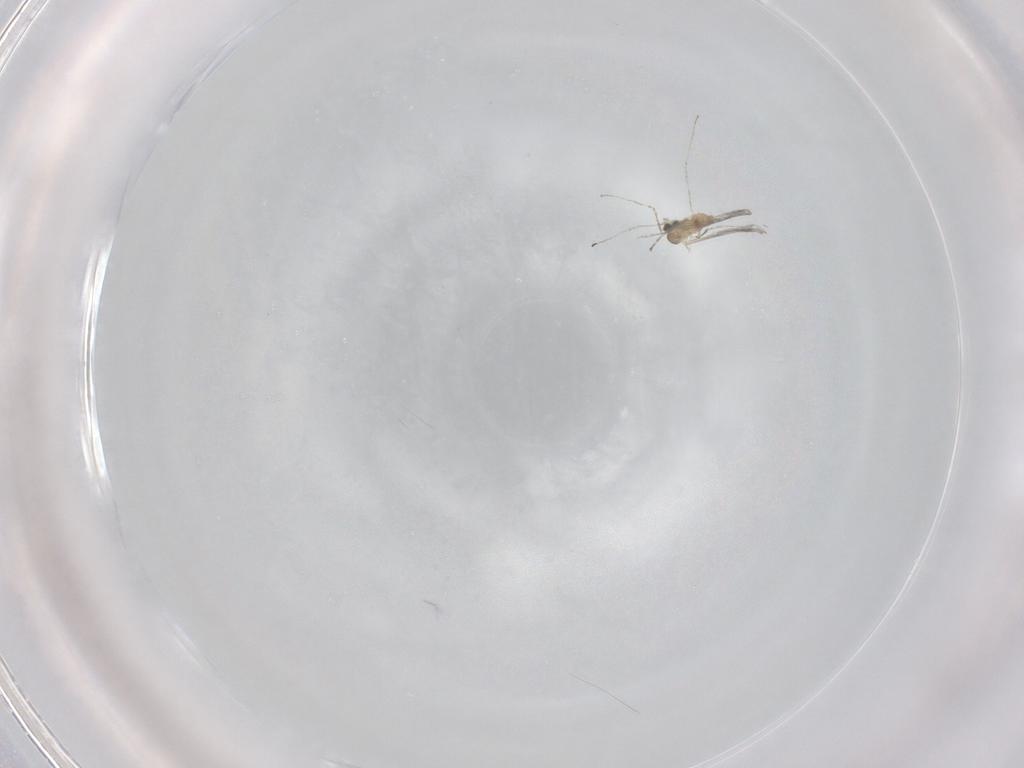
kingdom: Animalia
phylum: Arthropoda
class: Insecta
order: Diptera
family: Cecidomyiidae
